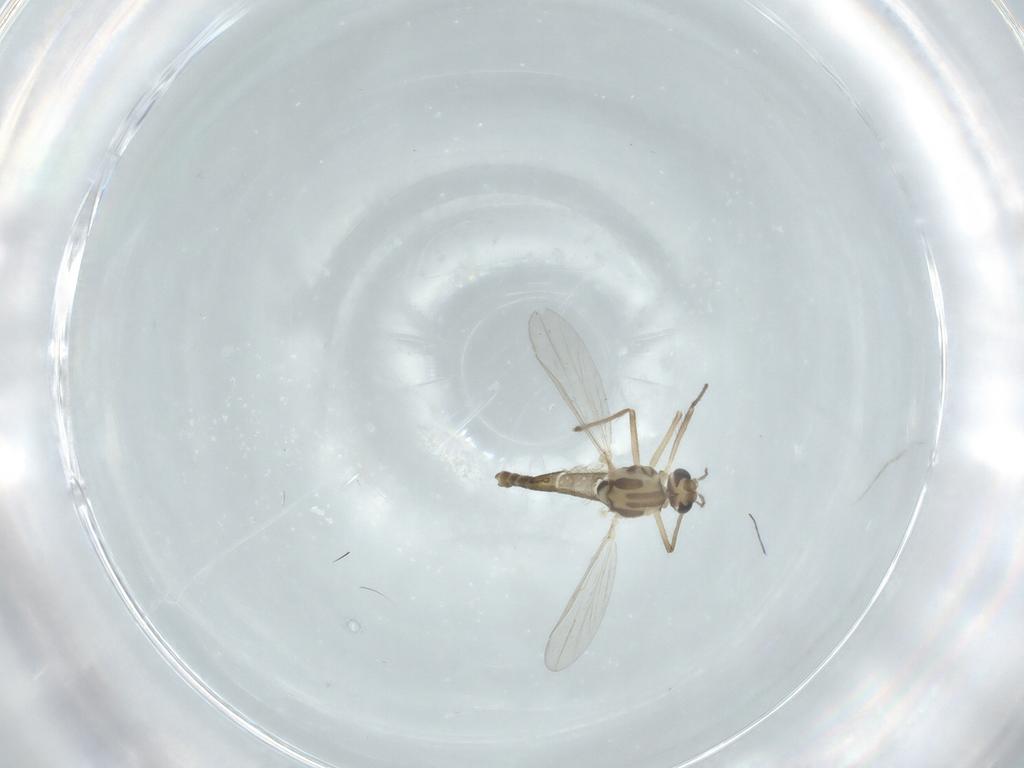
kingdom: Animalia
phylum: Arthropoda
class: Insecta
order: Diptera
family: Chironomidae
